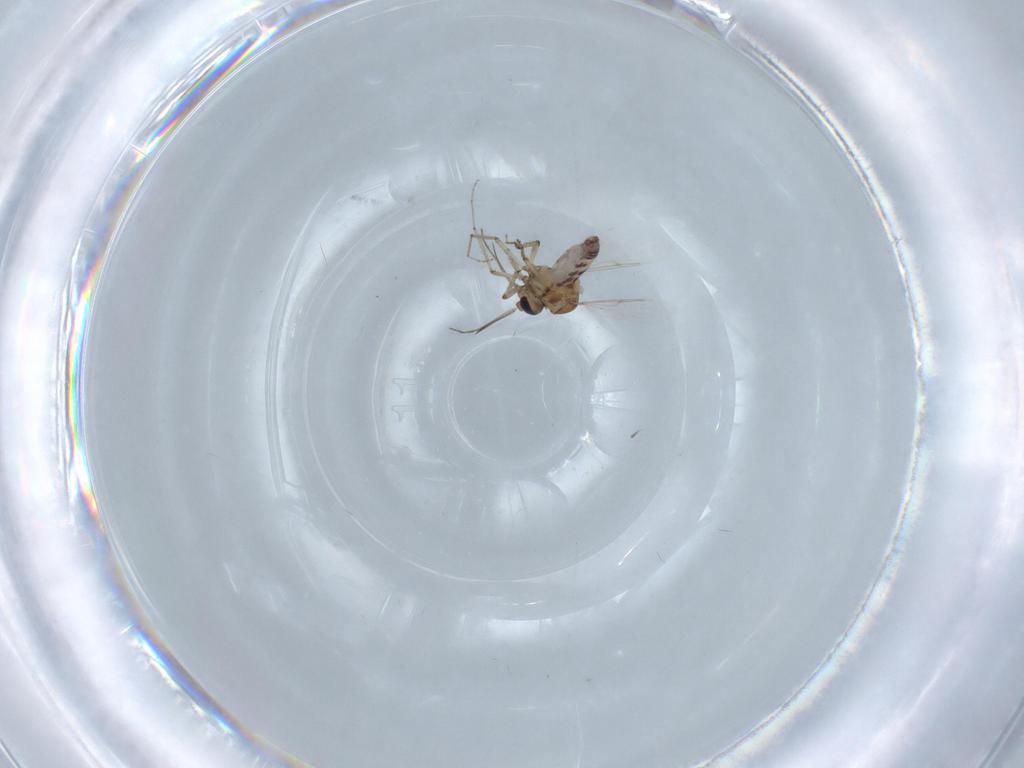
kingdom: Animalia
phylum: Arthropoda
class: Insecta
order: Diptera
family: Ceratopogonidae
